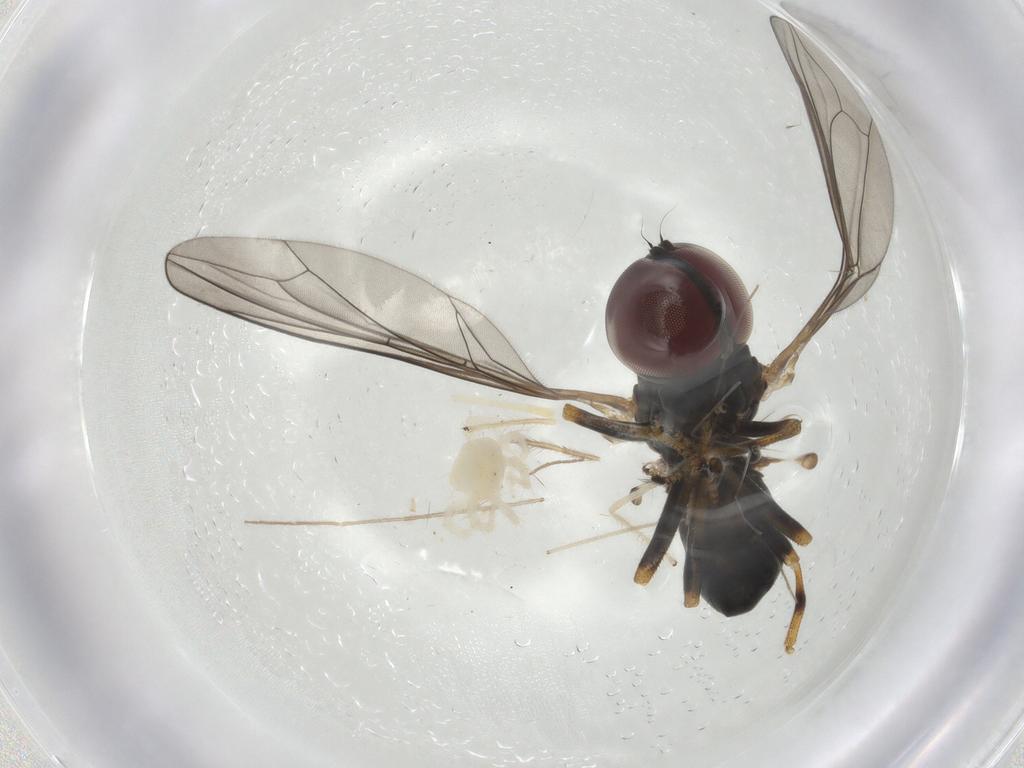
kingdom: Animalia
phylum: Arthropoda
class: Insecta
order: Diptera
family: Pipunculidae
